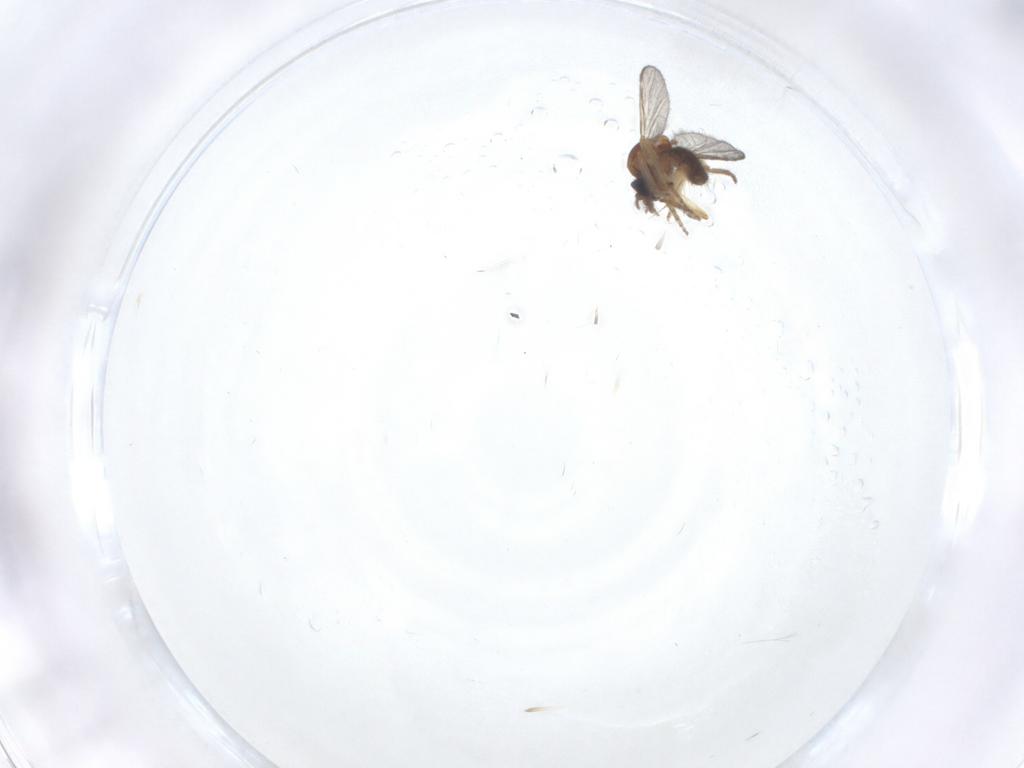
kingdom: Animalia
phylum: Arthropoda
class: Insecta
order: Diptera
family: Ceratopogonidae
